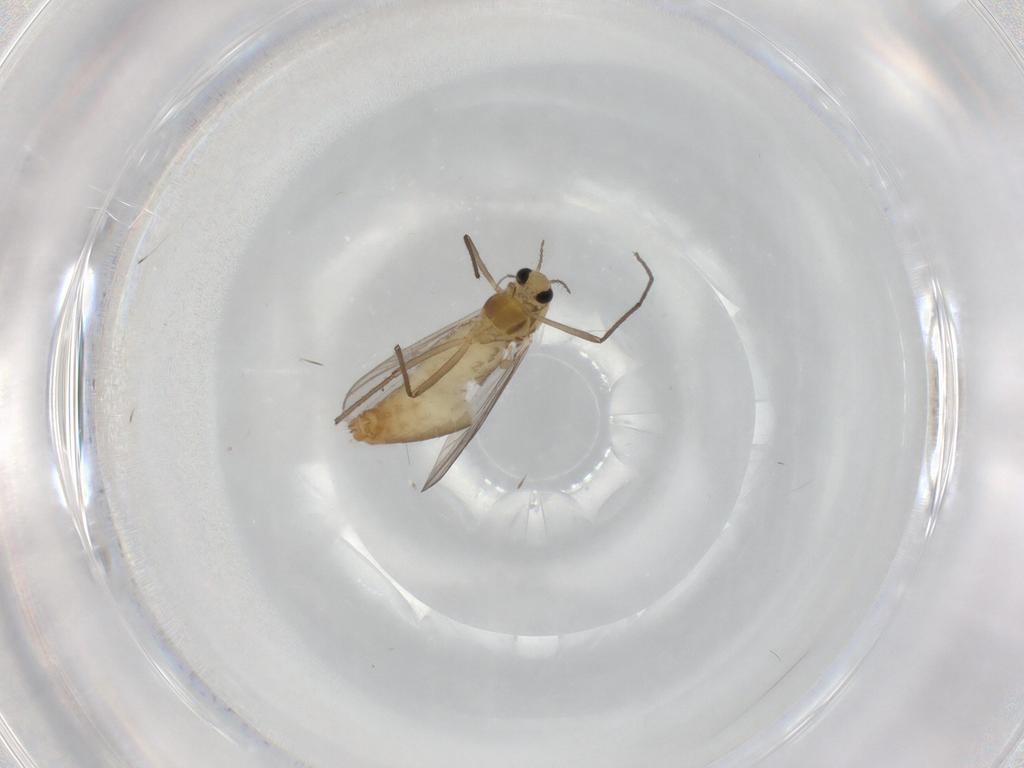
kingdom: Animalia
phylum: Arthropoda
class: Insecta
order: Diptera
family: Chironomidae
